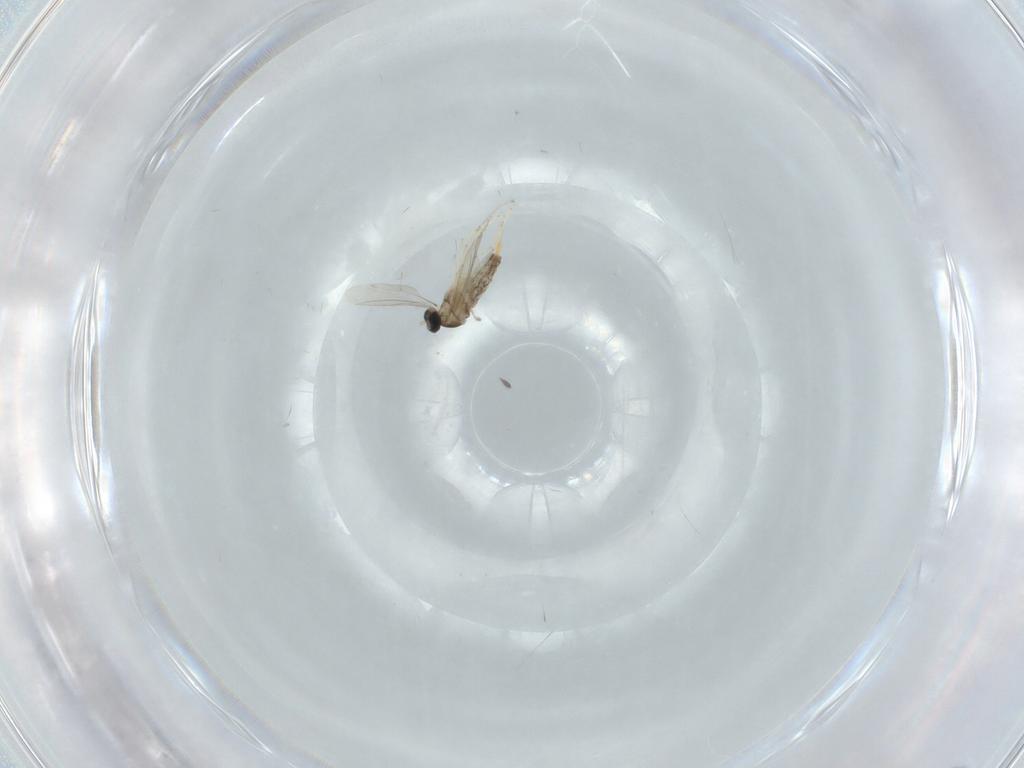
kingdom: Animalia
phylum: Arthropoda
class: Insecta
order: Diptera
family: Cecidomyiidae
